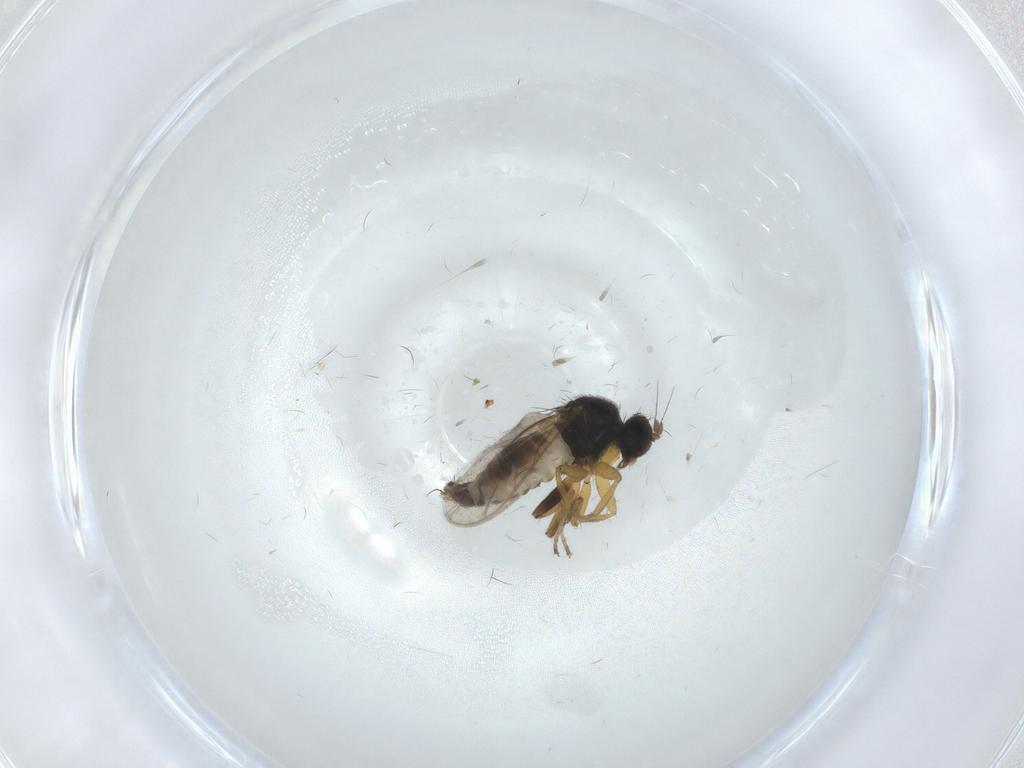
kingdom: Animalia
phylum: Arthropoda
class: Insecta
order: Diptera
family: Hybotidae
